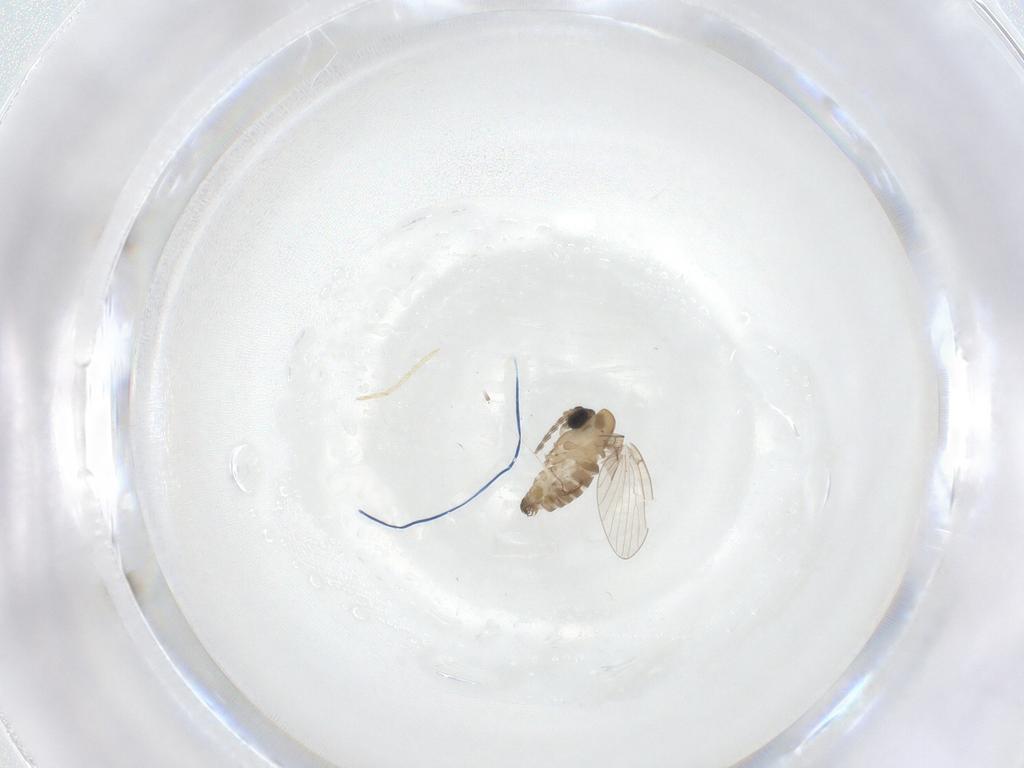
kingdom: Animalia
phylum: Arthropoda
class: Insecta
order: Diptera
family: Psychodidae
